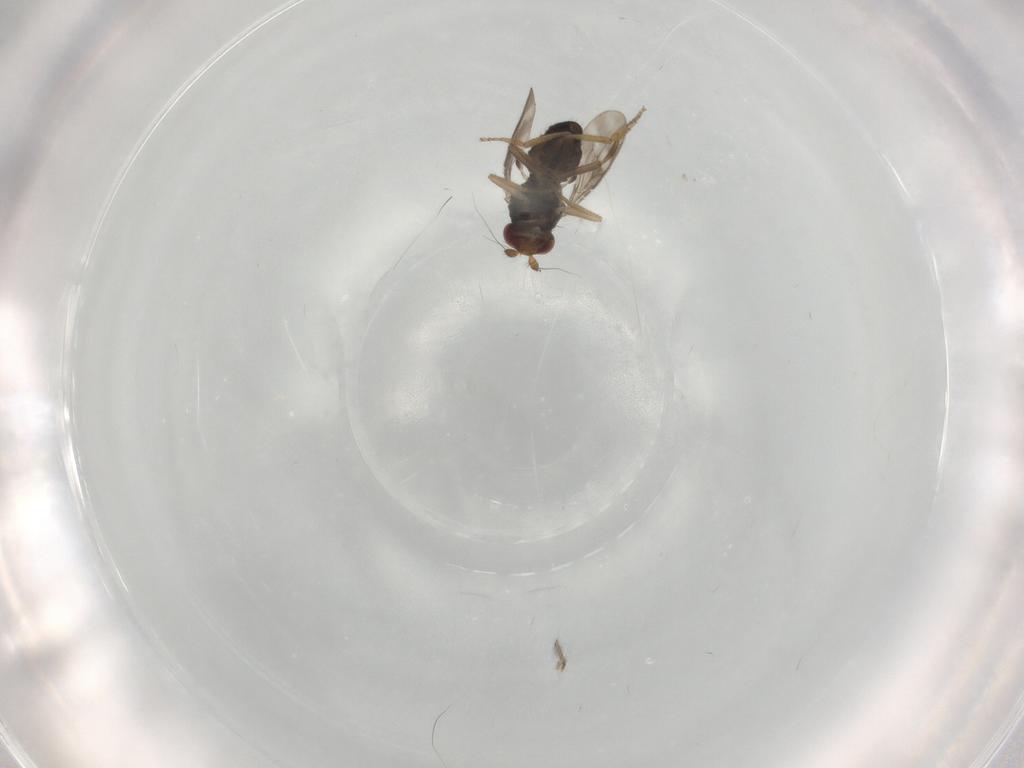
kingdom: Animalia
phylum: Arthropoda
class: Insecta
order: Diptera
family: Sphaeroceridae
